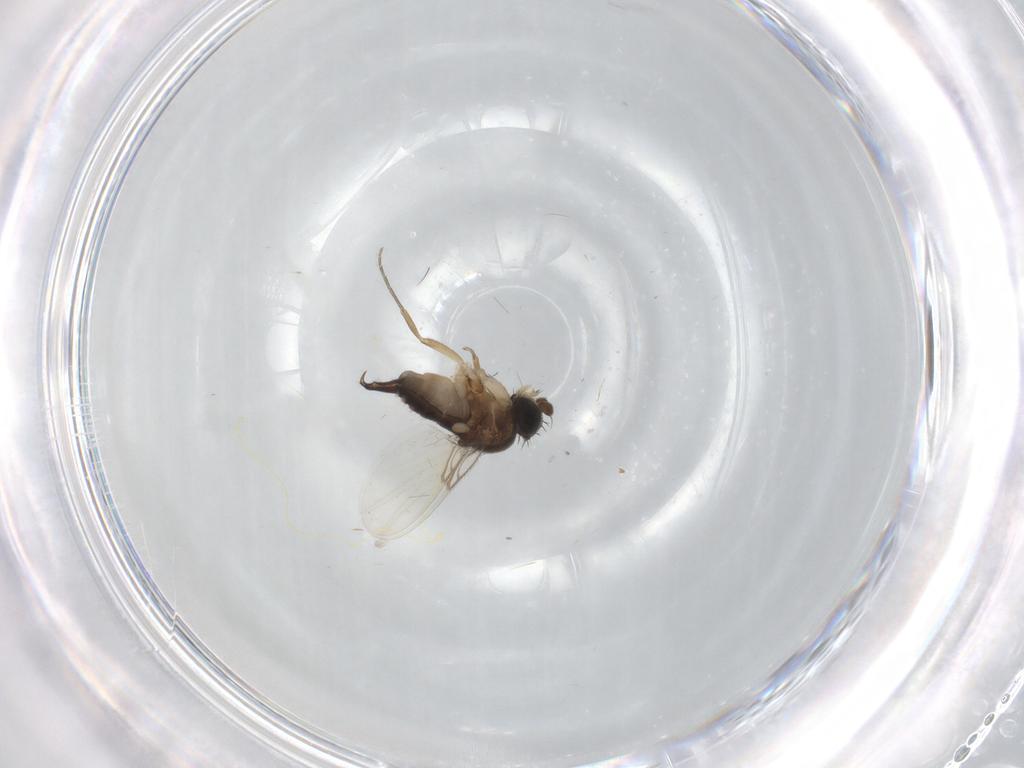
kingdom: Animalia
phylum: Arthropoda
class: Insecta
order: Diptera
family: Phoridae
